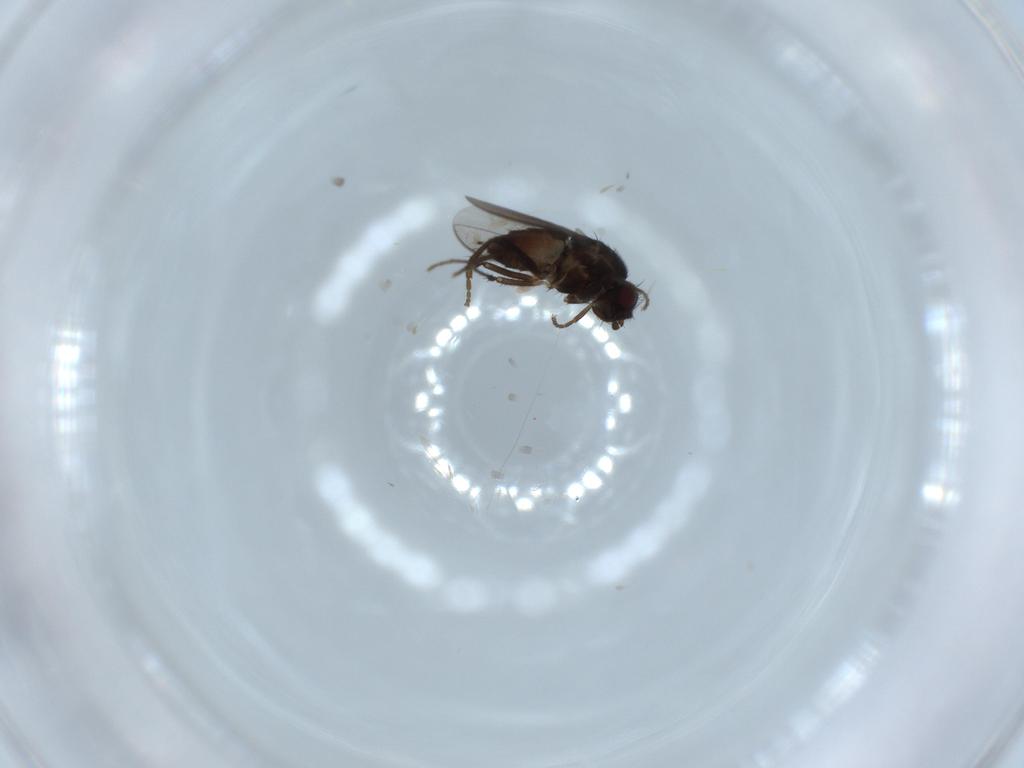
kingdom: Animalia
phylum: Arthropoda
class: Insecta
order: Diptera
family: Sphaeroceridae
